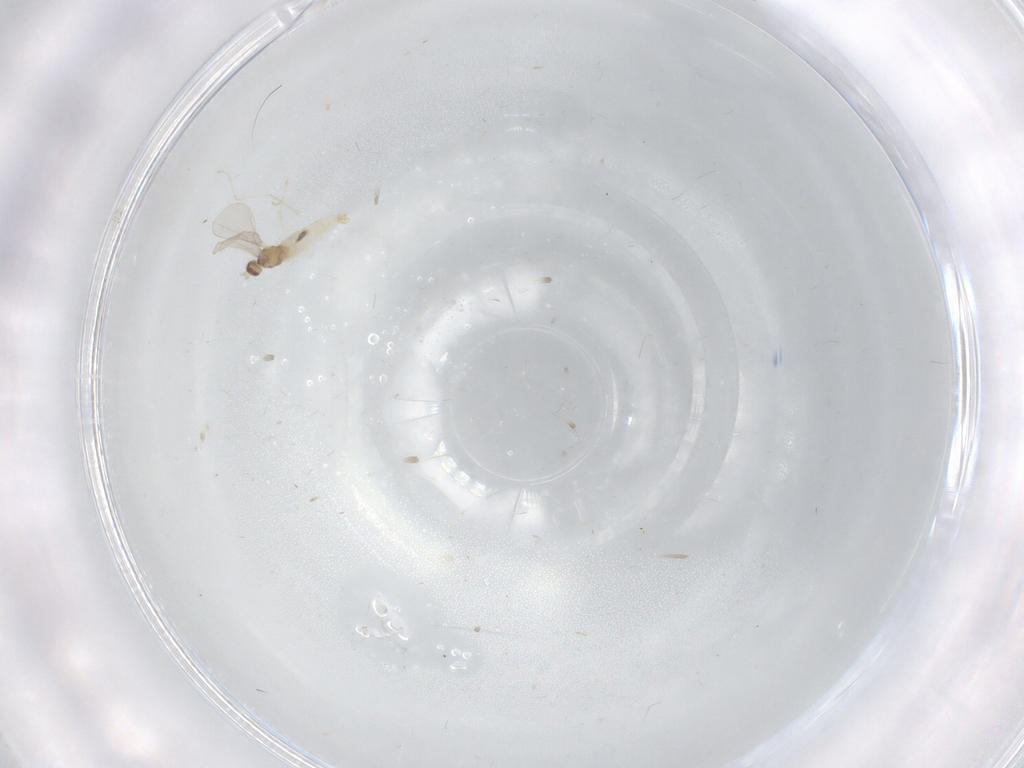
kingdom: Animalia
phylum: Arthropoda
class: Insecta
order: Diptera
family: Cecidomyiidae
